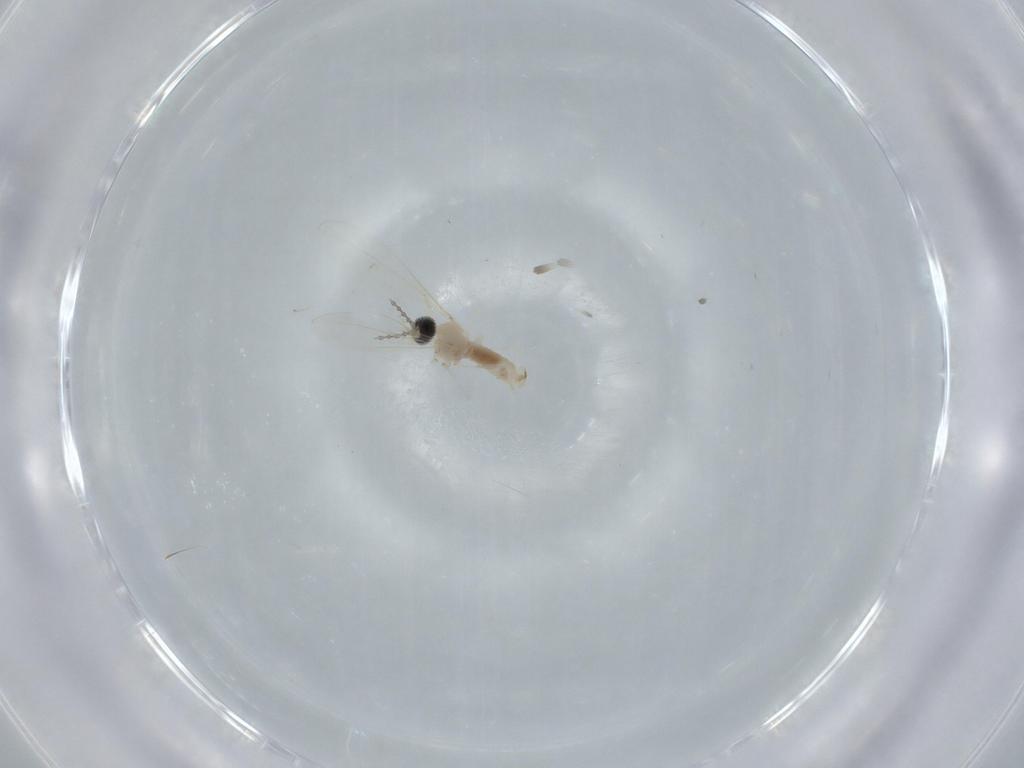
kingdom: Animalia
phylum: Arthropoda
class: Insecta
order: Diptera
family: Cecidomyiidae
